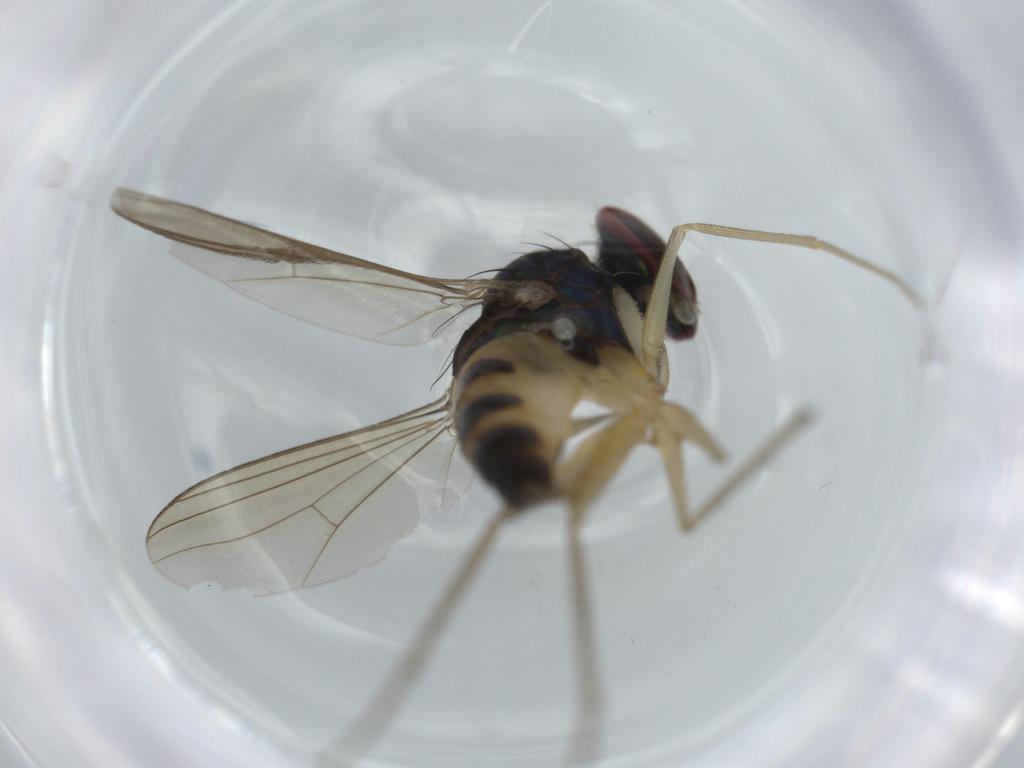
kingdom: Animalia
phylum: Arthropoda
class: Insecta
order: Diptera
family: Dolichopodidae
